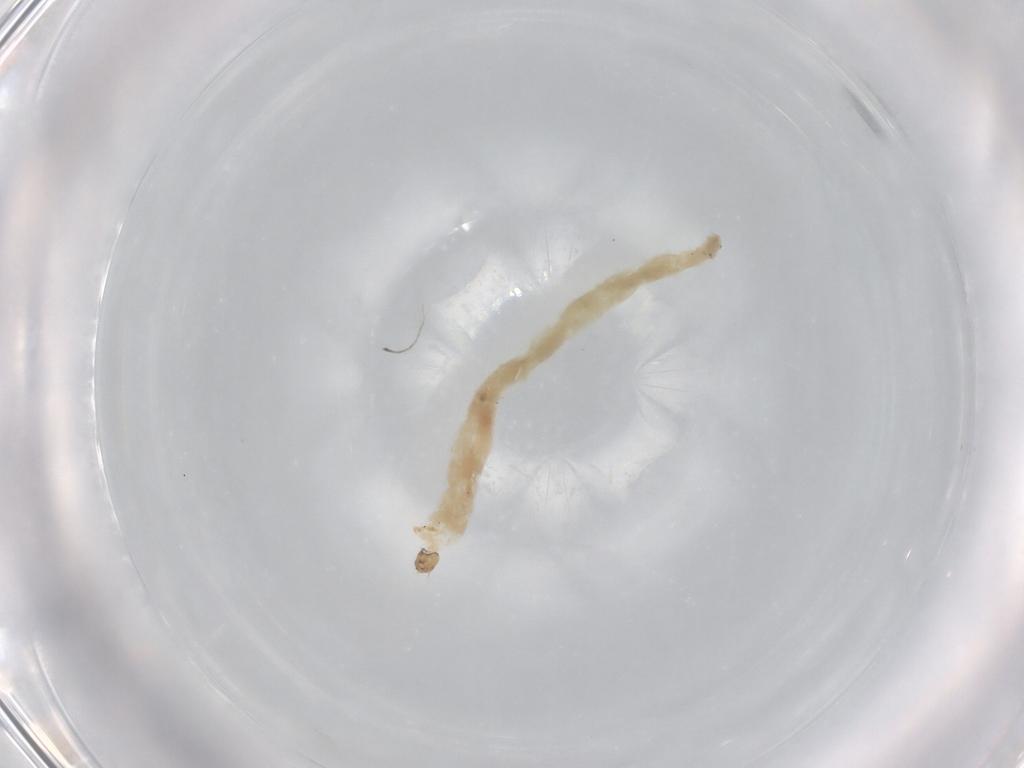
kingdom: Animalia
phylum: Arthropoda
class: Insecta
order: Diptera
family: Chironomidae
